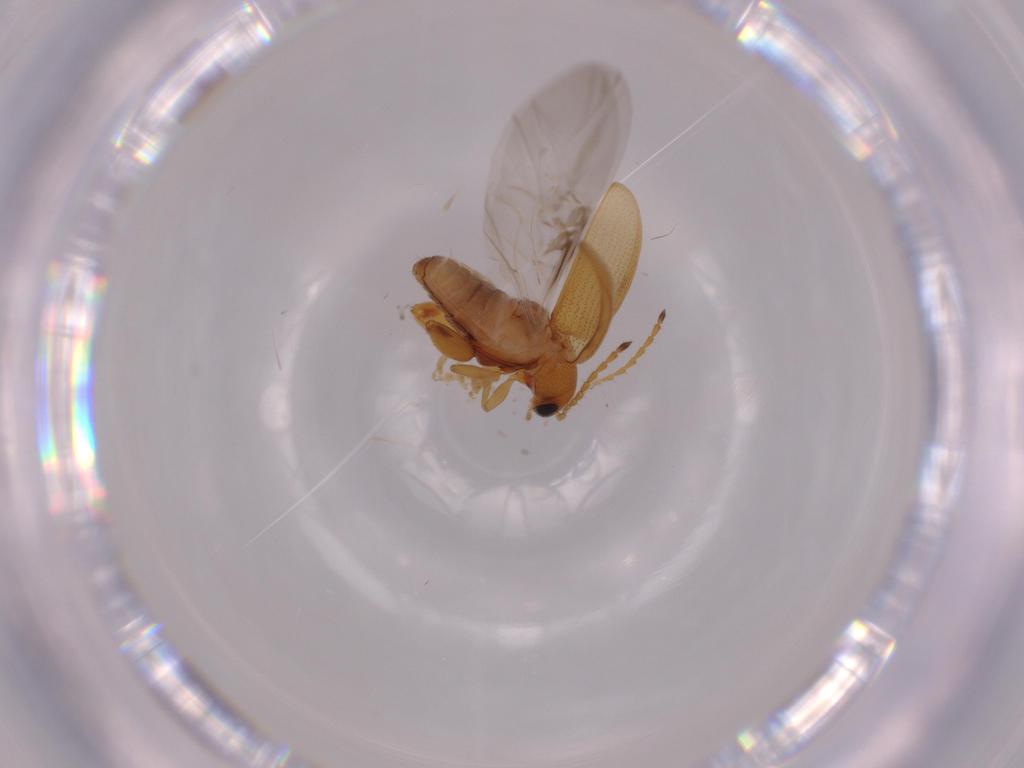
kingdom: Animalia
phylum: Arthropoda
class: Insecta
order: Coleoptera
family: Chrysomelidae
